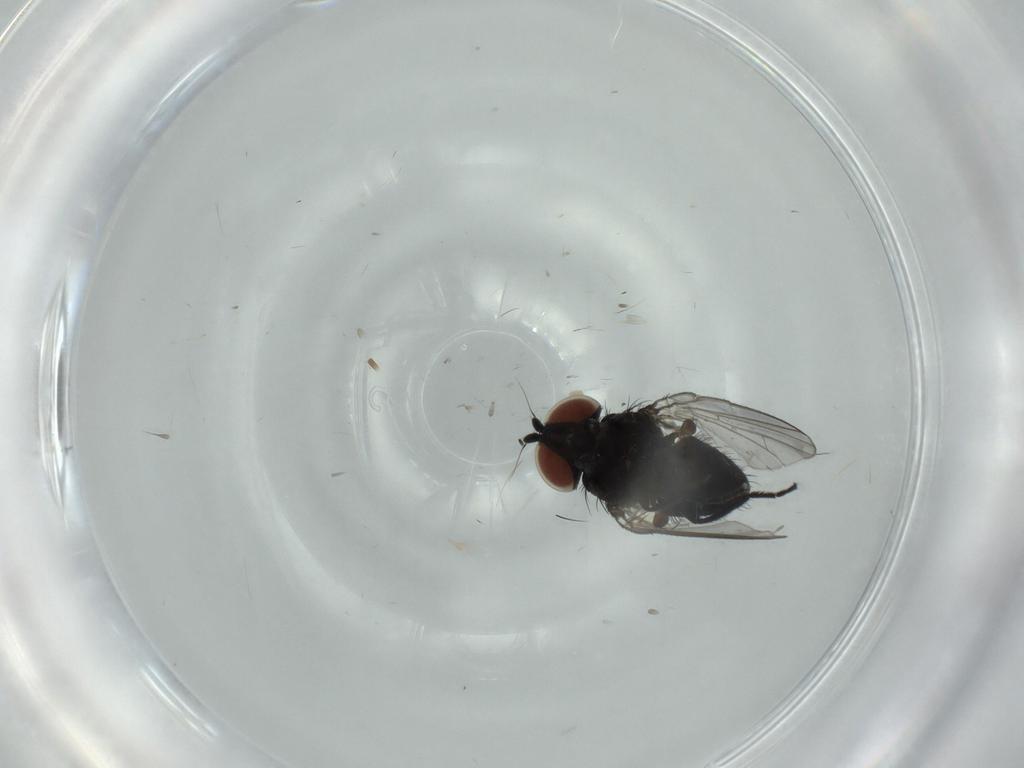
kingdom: Animalia
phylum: Arthropoda
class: Insecta
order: Diptera
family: Milichiidae
